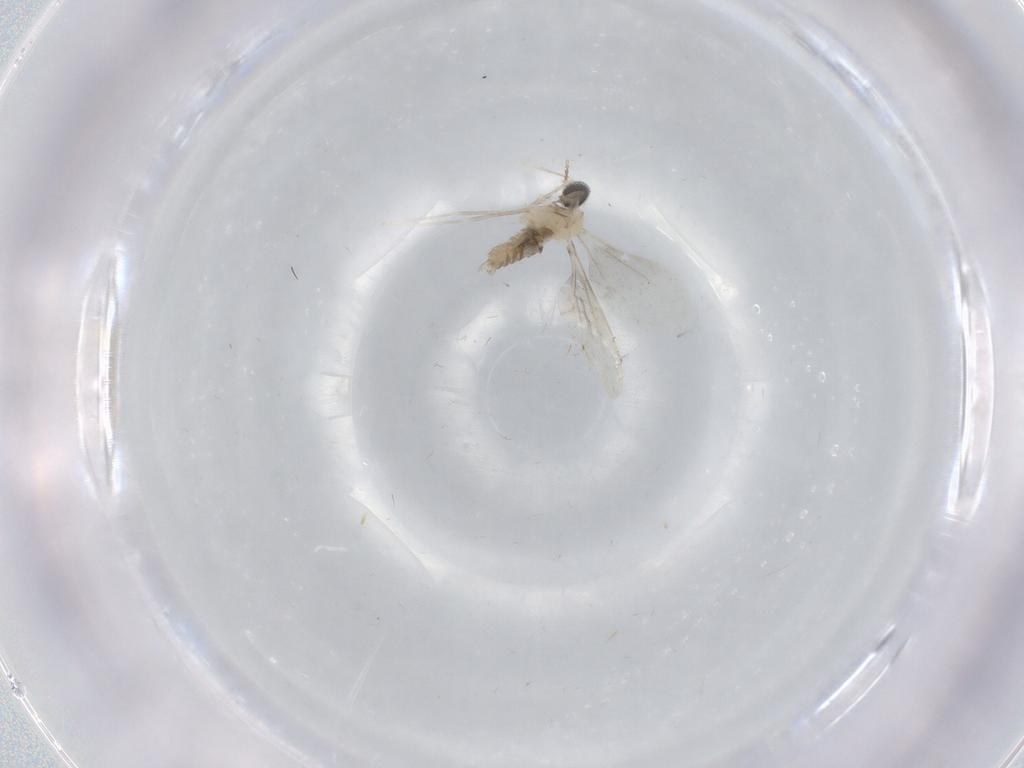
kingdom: Animalia
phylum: Arthropoda
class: Insecta
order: Diptera
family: Cecidomyiidae
